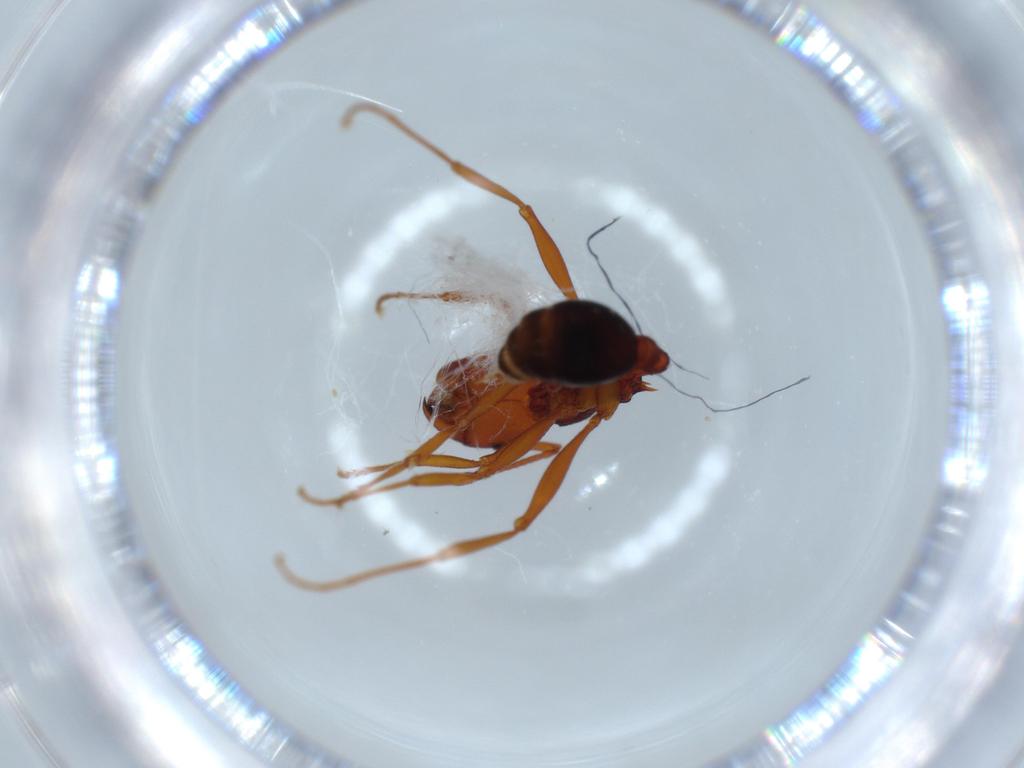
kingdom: Animalia
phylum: Arthropoda
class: Insecta
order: Hymenoptera
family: Formicidae
